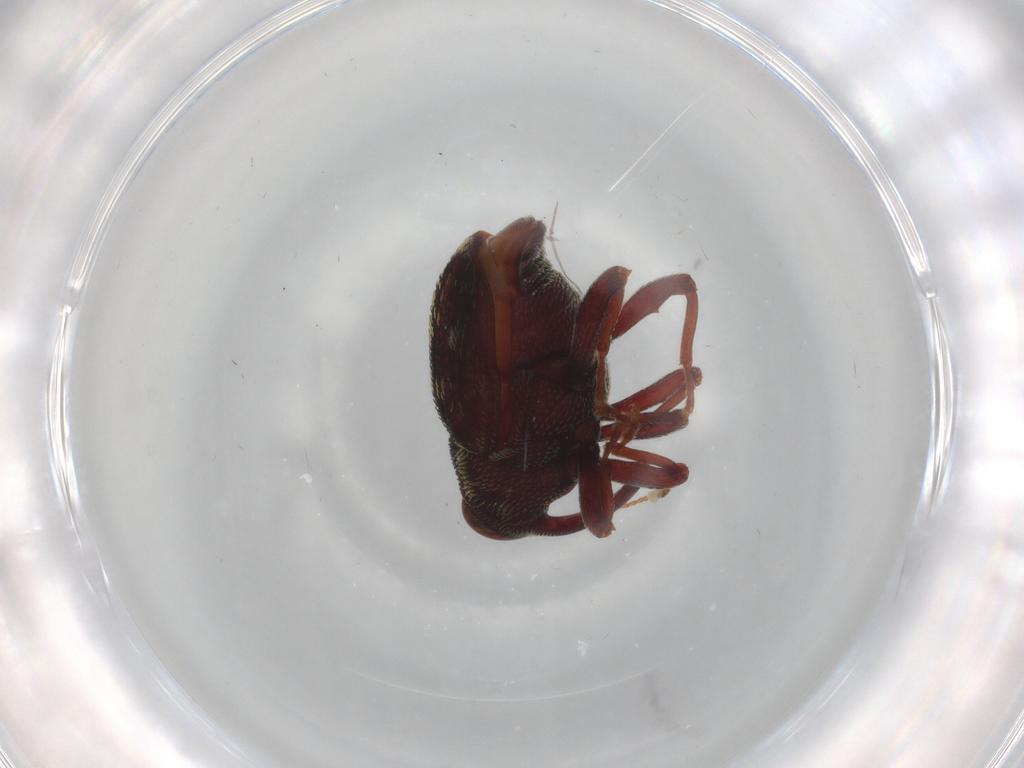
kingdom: Animalia
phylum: Arthropoda
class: Insecta
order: Coleoptera
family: Curculionidae
